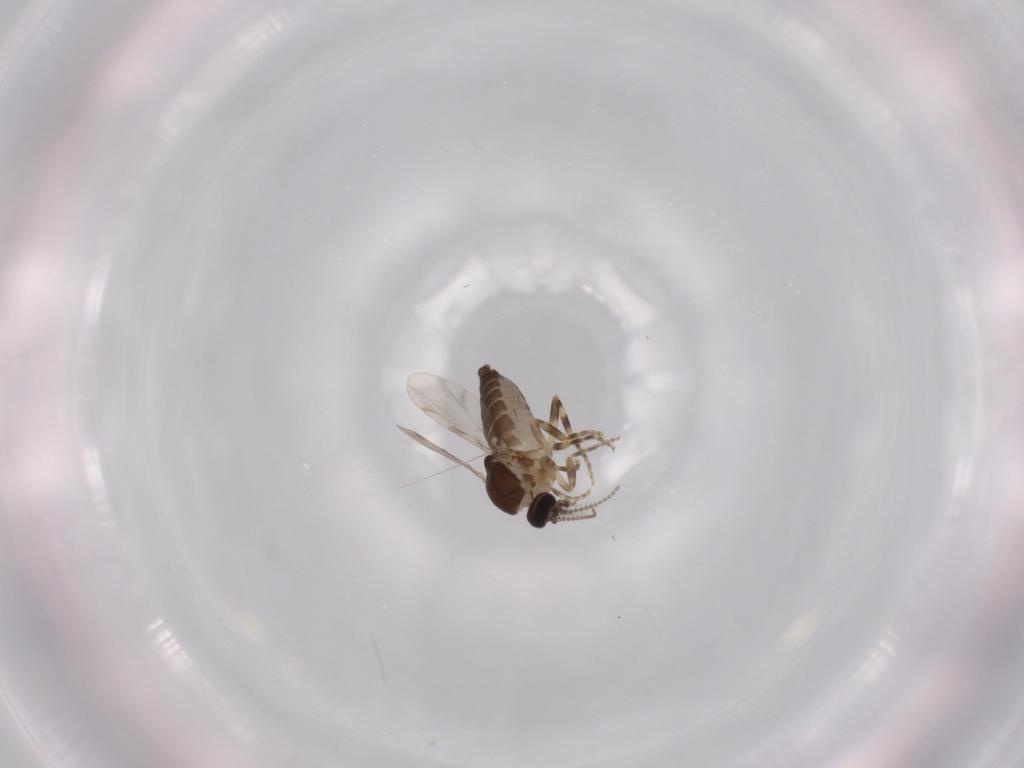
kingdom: Animalia
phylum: Arthropoda
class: Insecta
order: Diptera
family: Ceratopogonidae
